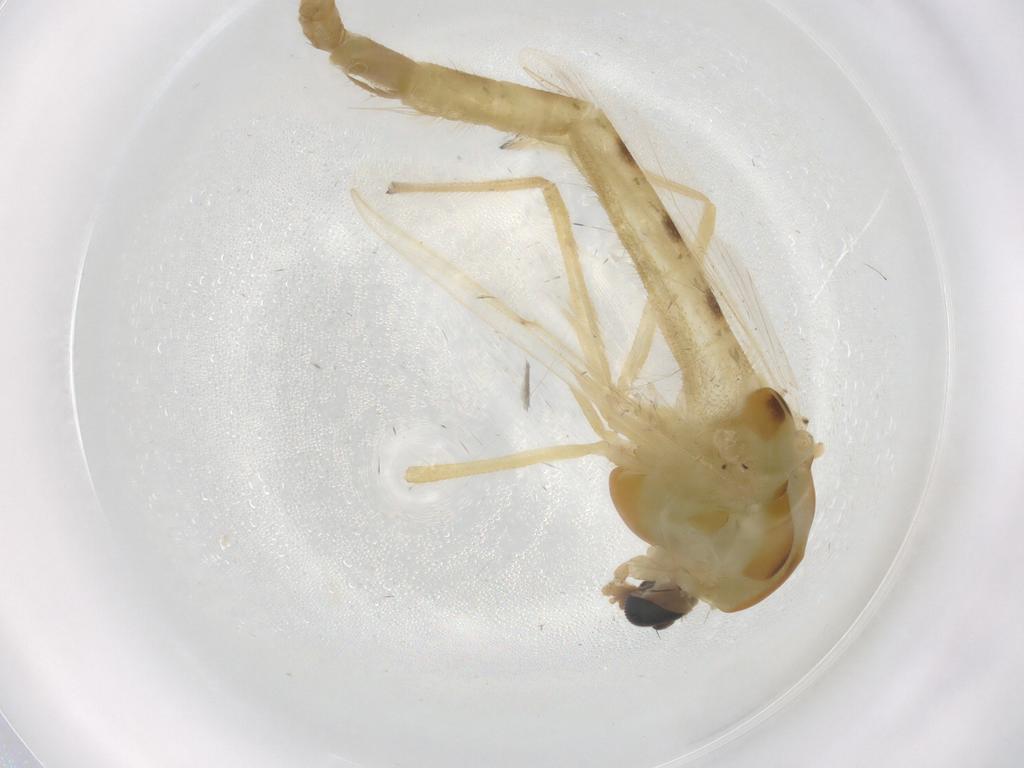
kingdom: Animalia
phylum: Arthropoda
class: Insecta
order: Diptera
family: Ceratopogonidae
